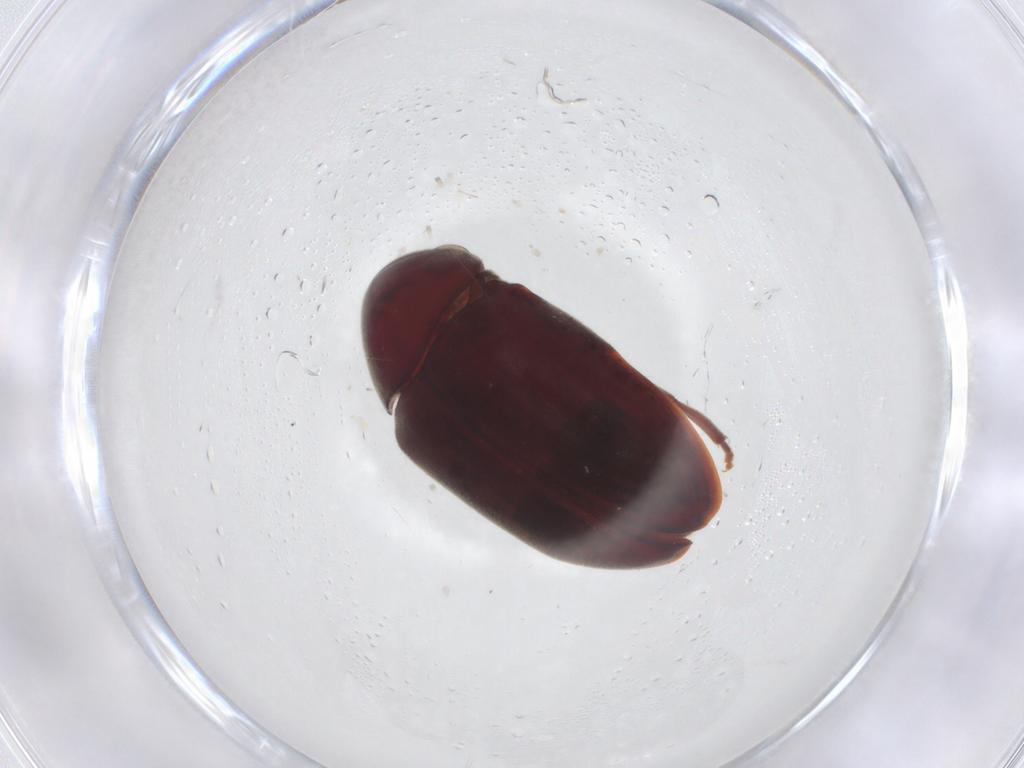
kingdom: Animalia
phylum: Arthropoda
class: Insecta
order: Coleoptera
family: Ptinidae
